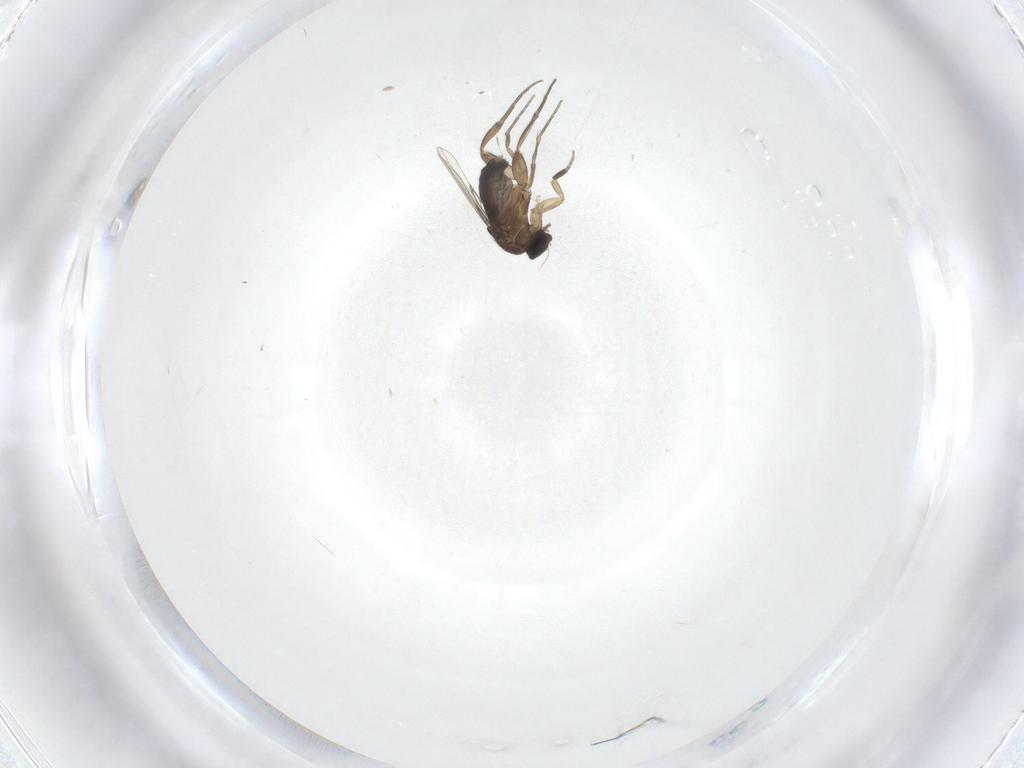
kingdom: Animalia
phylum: Arthropoda
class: Insecta
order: Diptera
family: Phoridae
